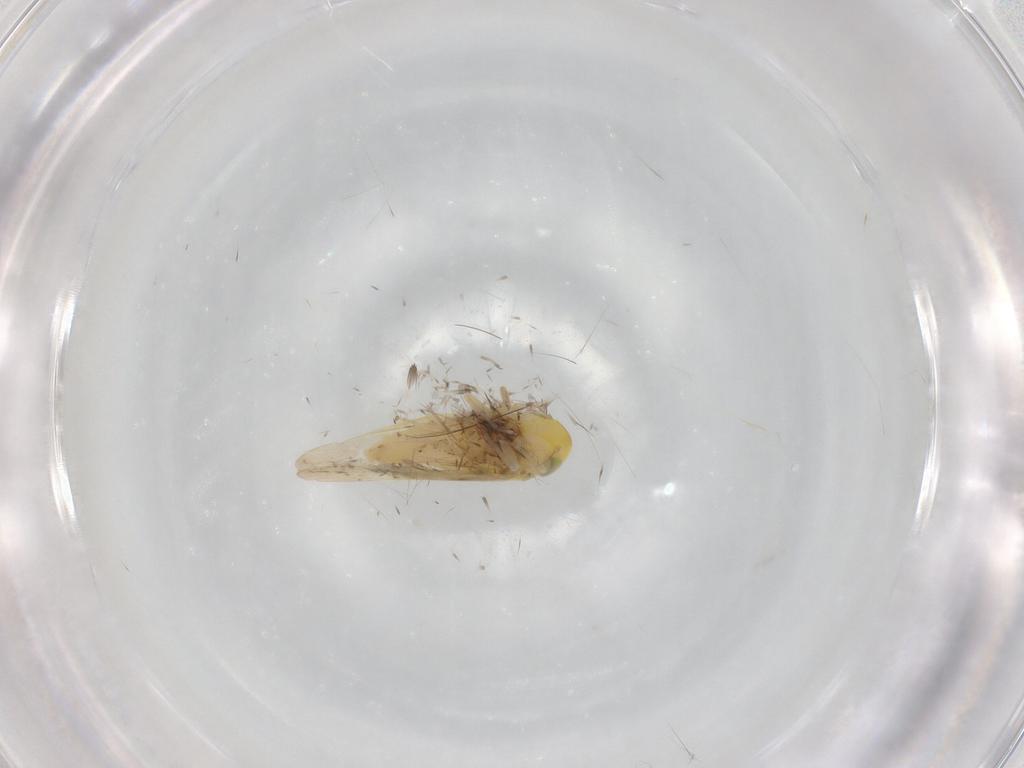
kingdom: Animalia
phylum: Arthropoda
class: Insecta
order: Hemiptera
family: Cicadellidae
